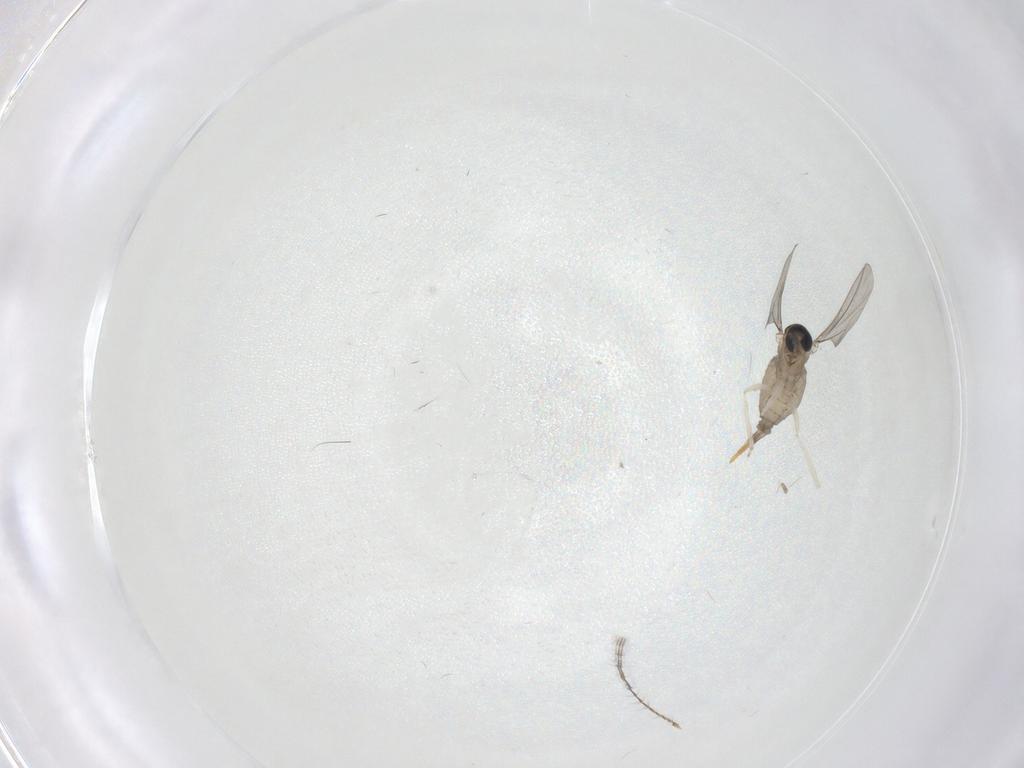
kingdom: Animalia
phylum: Arthropoda
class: Insecta
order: Diptera
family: Cecidomyiidae
